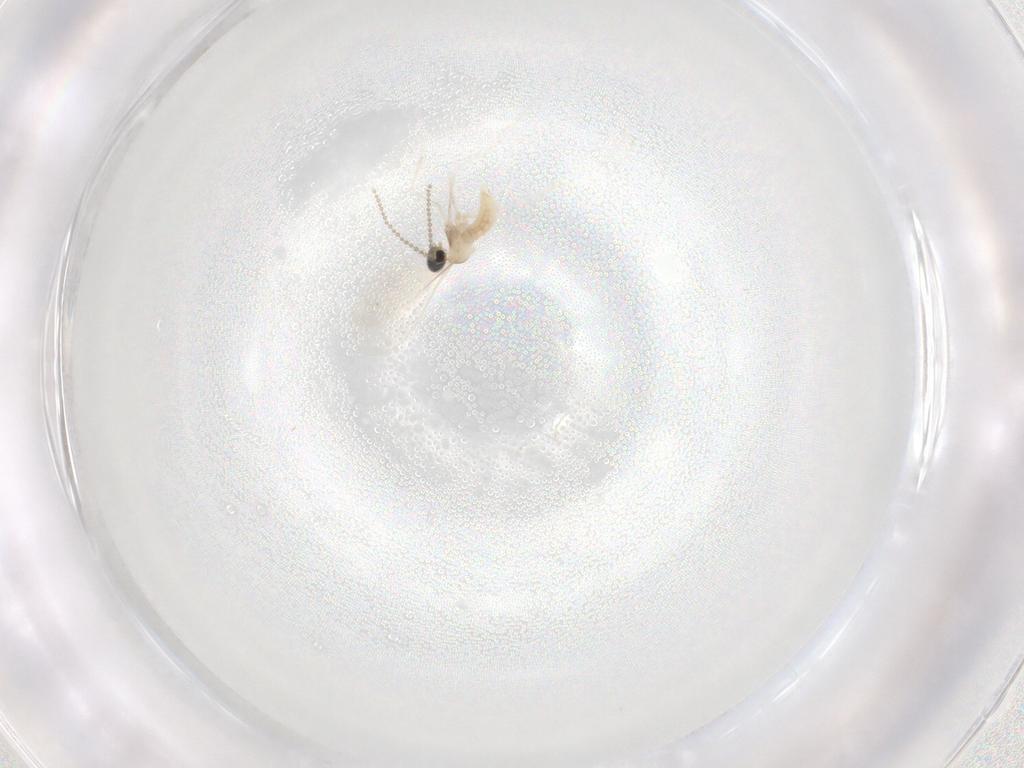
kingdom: Animalia
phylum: Arthropoda
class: Insecta
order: Diptera
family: Cecidomyiidae
